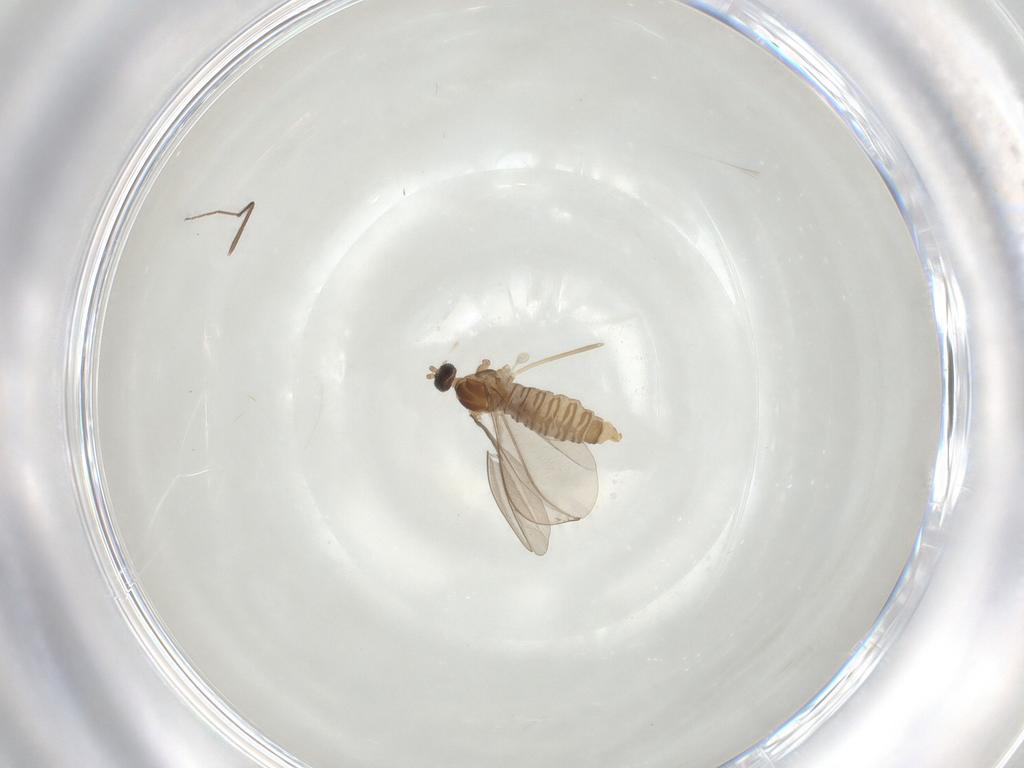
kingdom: Animalia
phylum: Arthropoda
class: Insecta
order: Diptera
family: Cecidomyiidae
